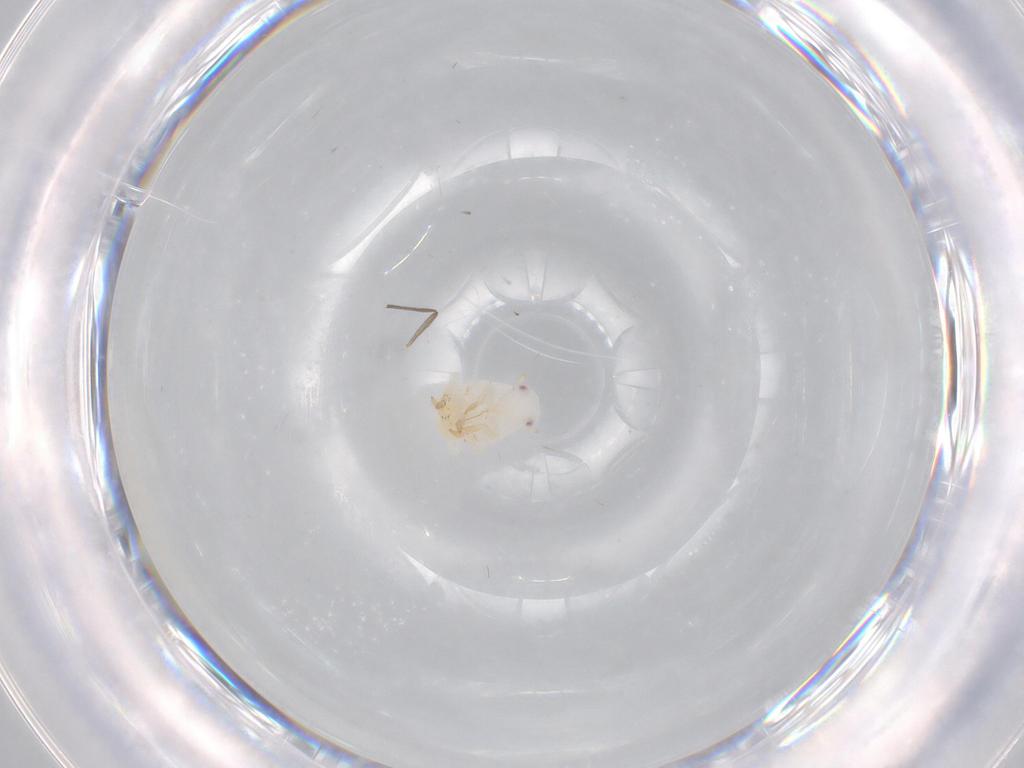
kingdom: Animalia
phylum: Arthropoda
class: Insecta
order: Hemiptera
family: Flatidae
